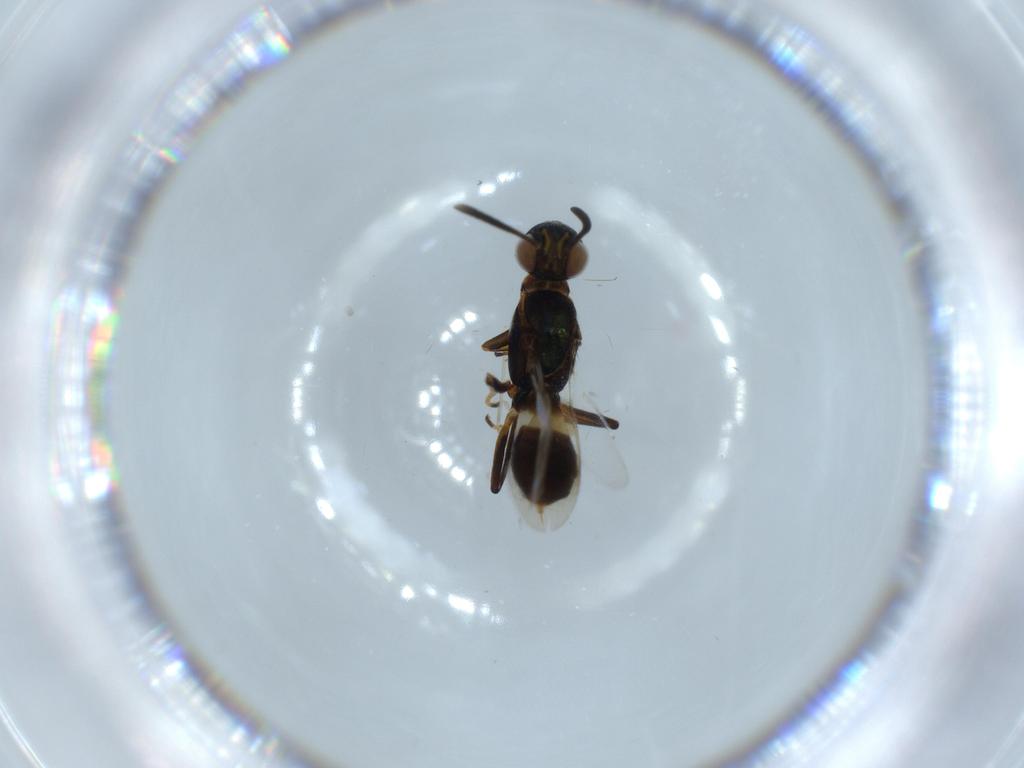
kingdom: Animalia
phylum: Arthropoda
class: Insecta
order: Hymenoptera
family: Eupelmidae
